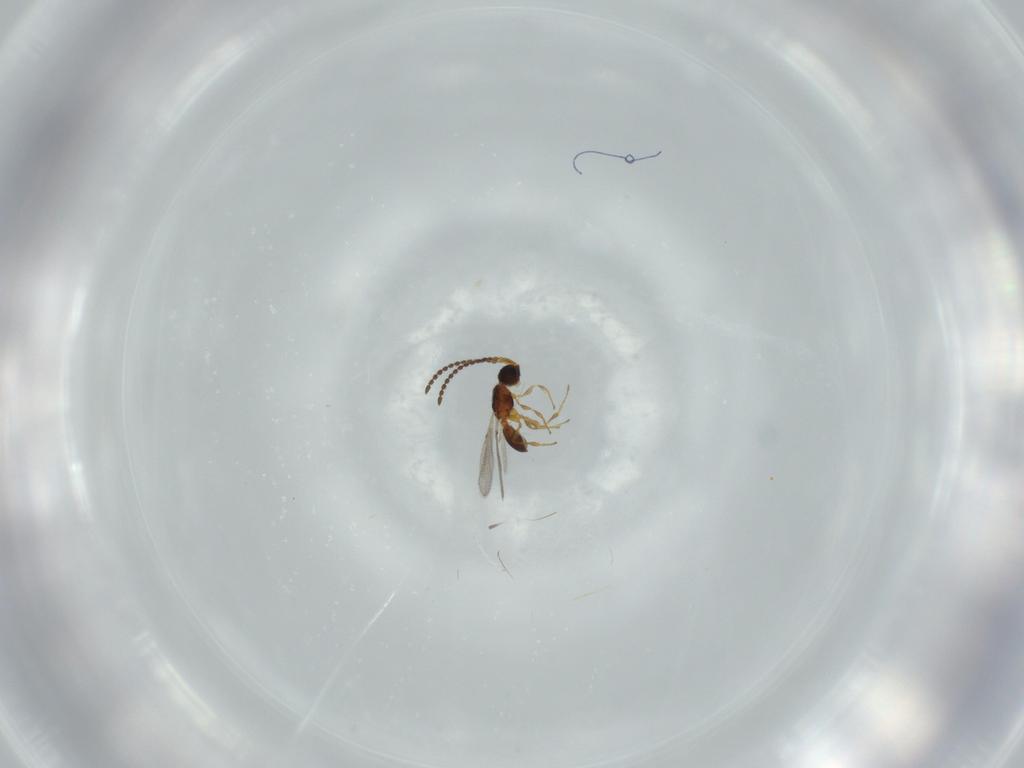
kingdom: Animalia
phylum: Arthropoda
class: Insecta
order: Hymenoptera
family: Diapriidae
